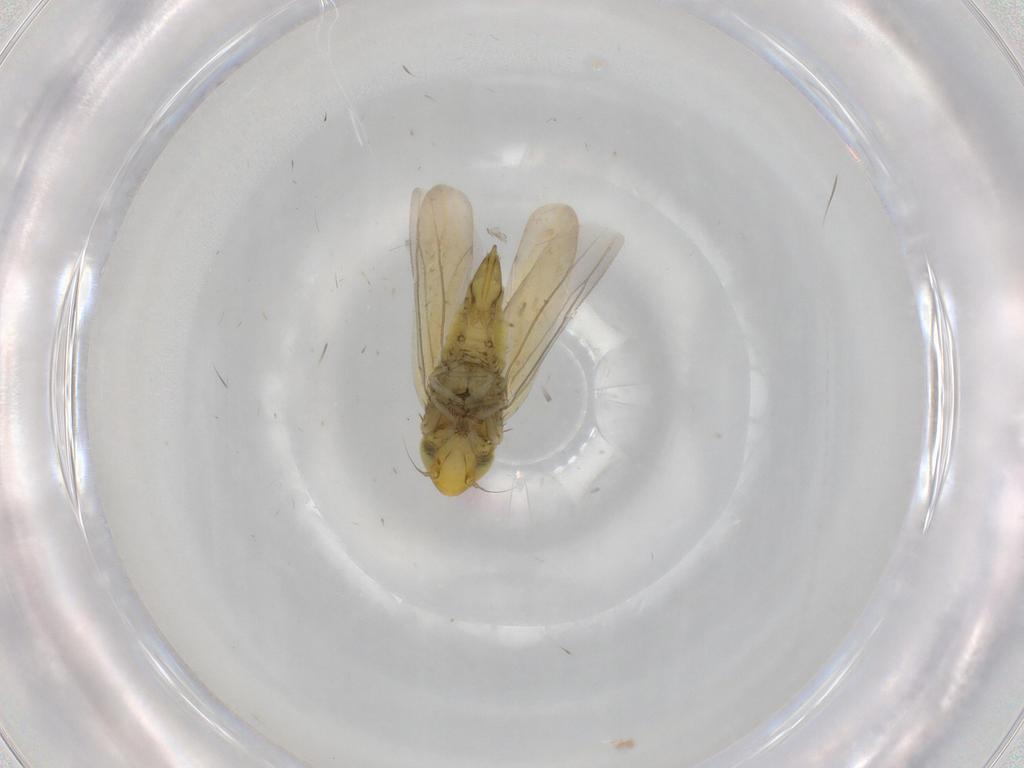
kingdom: Animalia
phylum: Arthropoda
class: Insecta
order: Hemiptera
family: Cicadellidae
